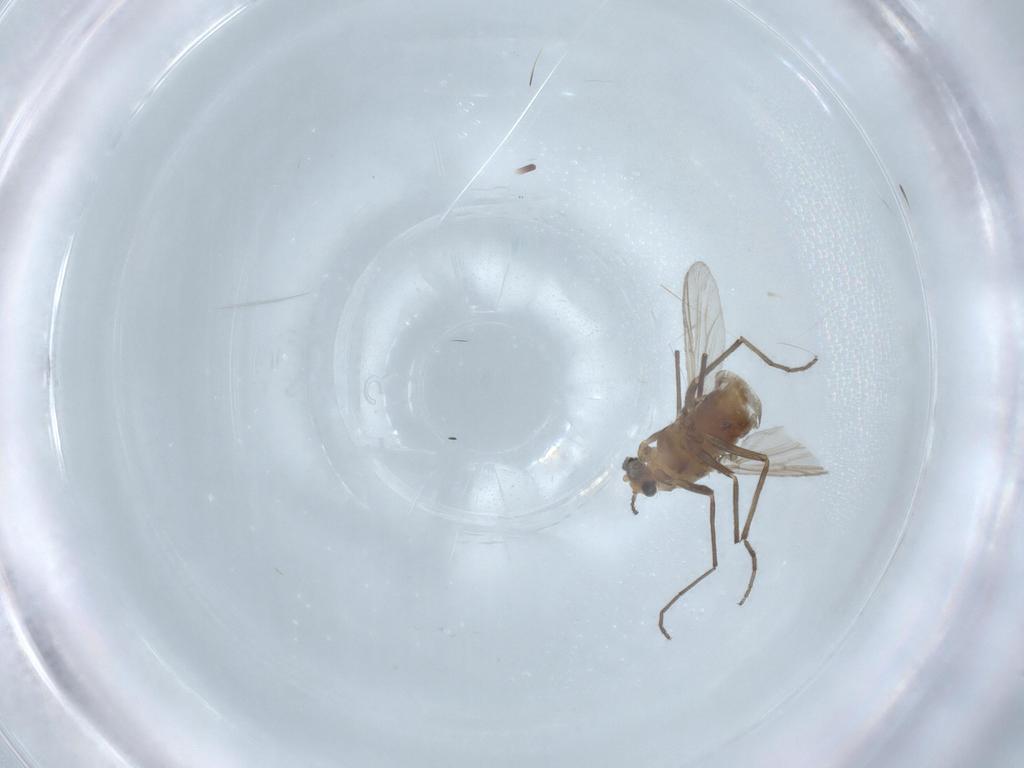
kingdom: Animalia
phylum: Arthropoda
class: Insecta
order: Diptera
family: Chironomidae
